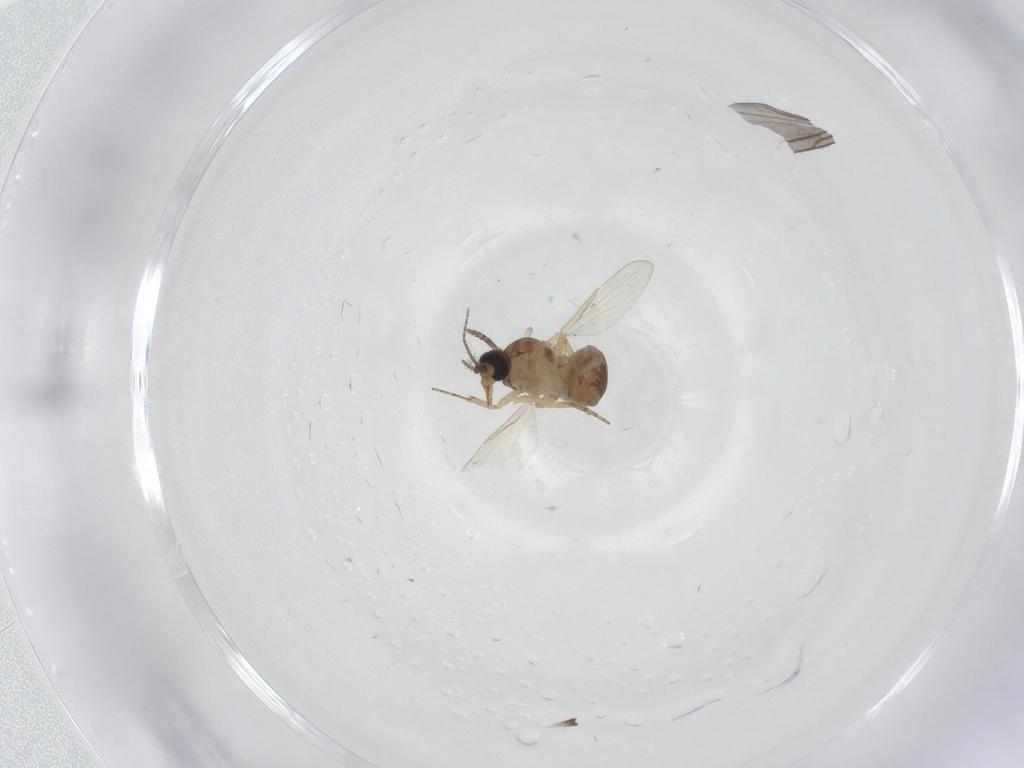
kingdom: Animalia
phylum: Arthropoda
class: Insecta
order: Diptera
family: Ceratopogonidae
